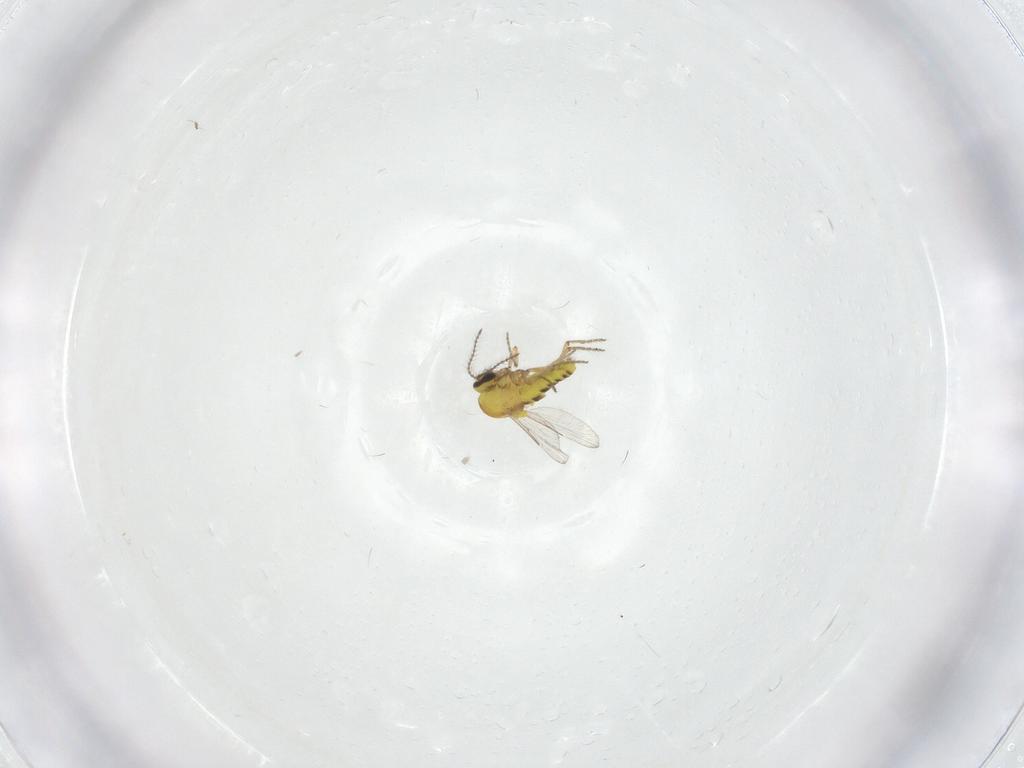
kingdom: Animalia
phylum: Arthropoda
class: Insecta
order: Diptera
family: Ceratopogonidae
